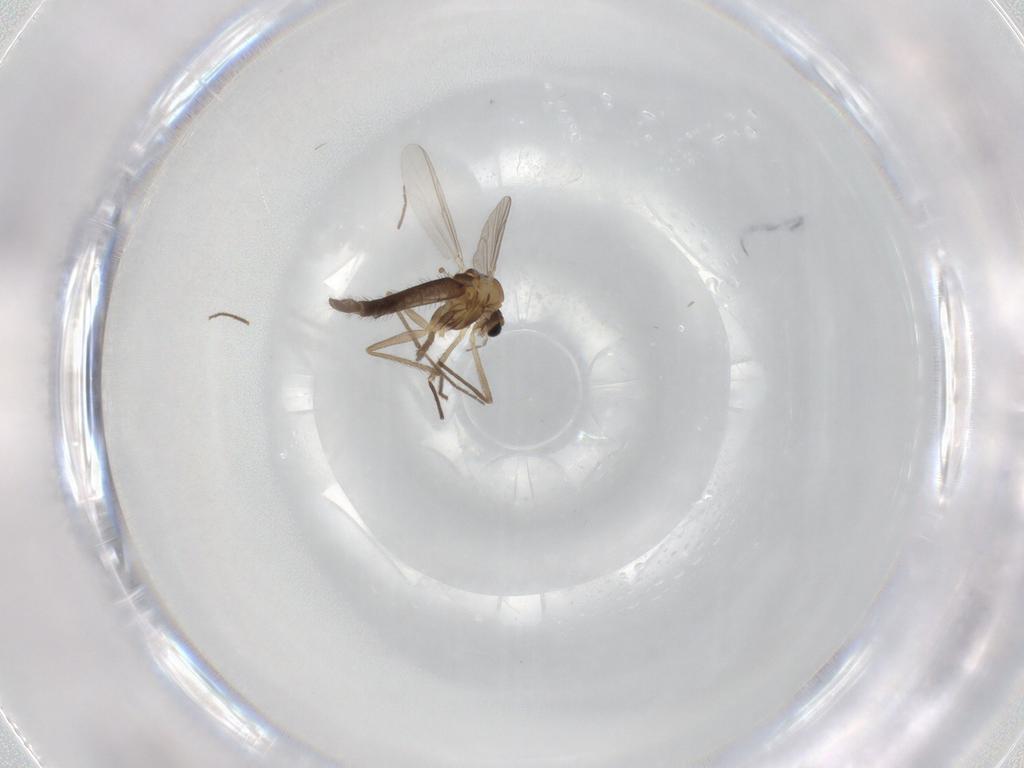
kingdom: Animalia
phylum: Arthropoda
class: Insecta
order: Diptera
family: Chironomidae
